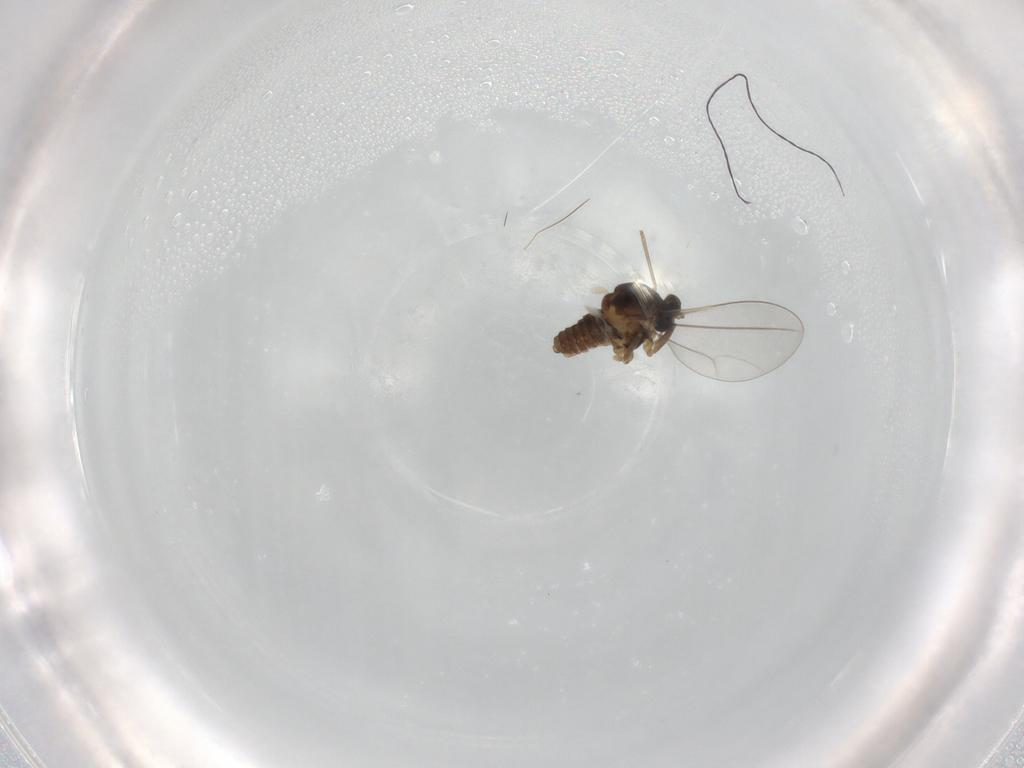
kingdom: Animalia
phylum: Arthropoda
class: Insecta
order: Diptera
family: Cecidomyiidae
